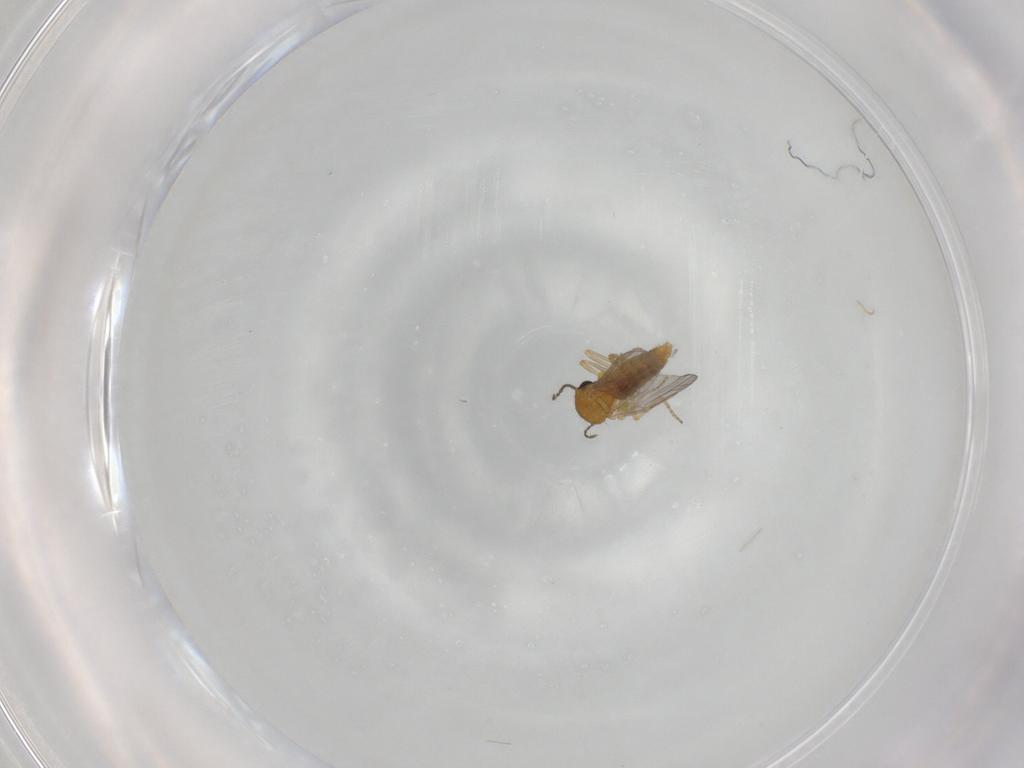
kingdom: Animalia
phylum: Arthropoda
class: Insecta
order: Diptera
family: Ceratopogonidae
